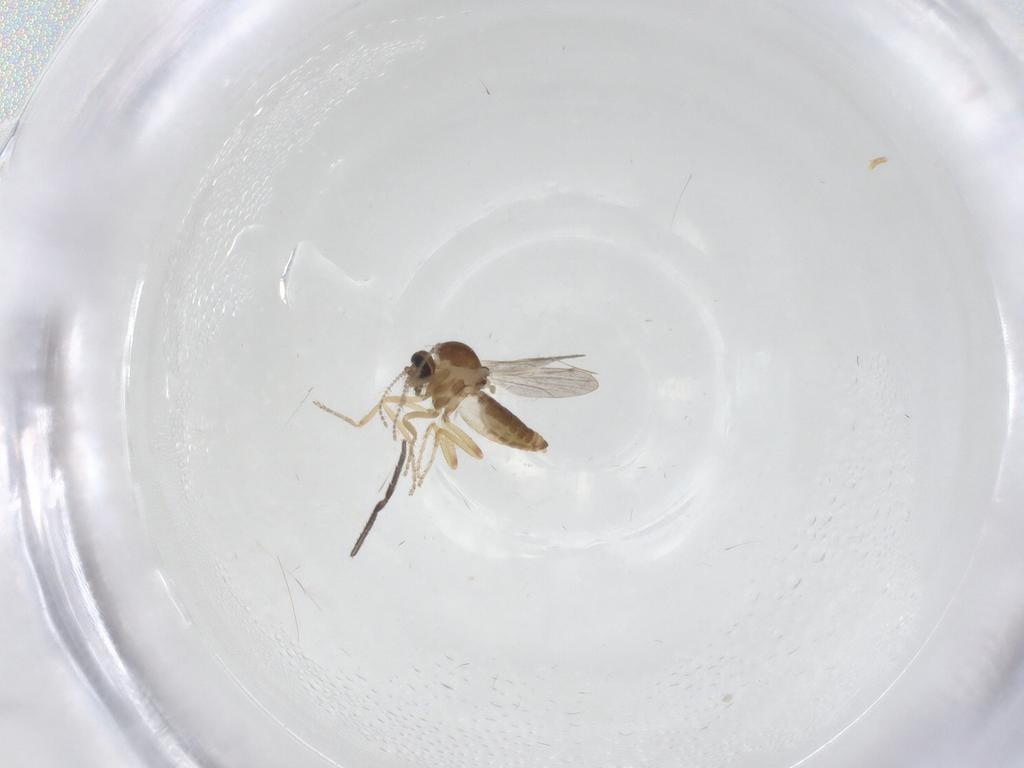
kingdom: Animalia
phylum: Arthropoda
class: Insecta
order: Diptera
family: Ceratopogonidae
